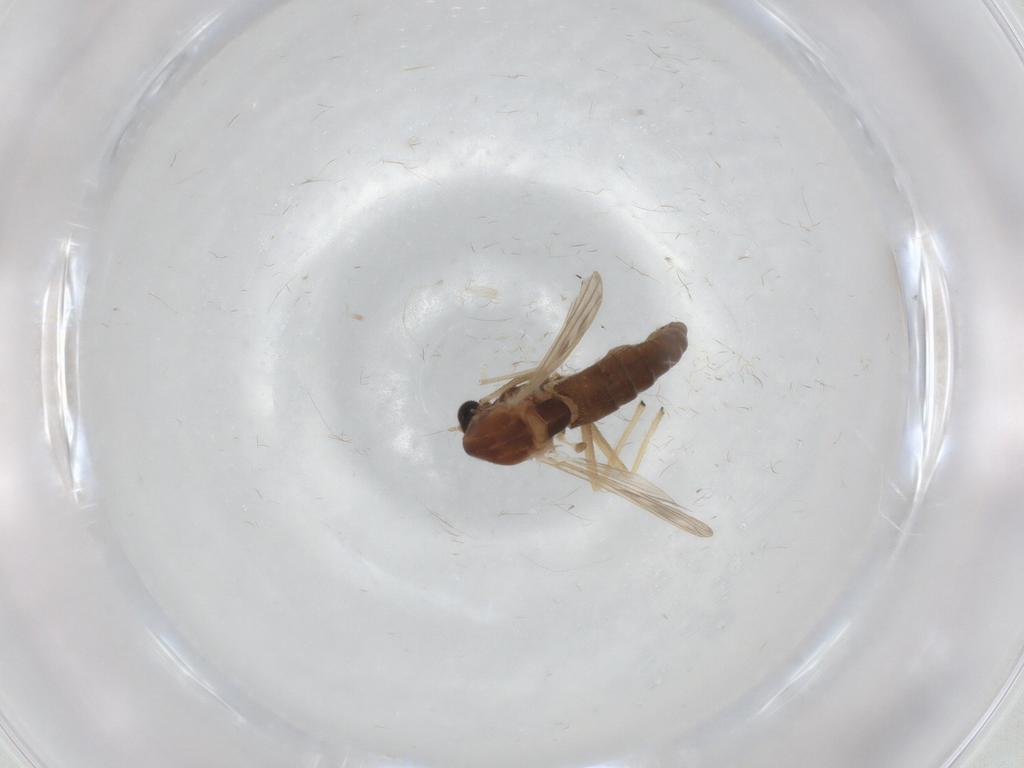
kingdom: Animalia
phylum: Arthropoda
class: Insecta
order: Diptera
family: Chironomidae
